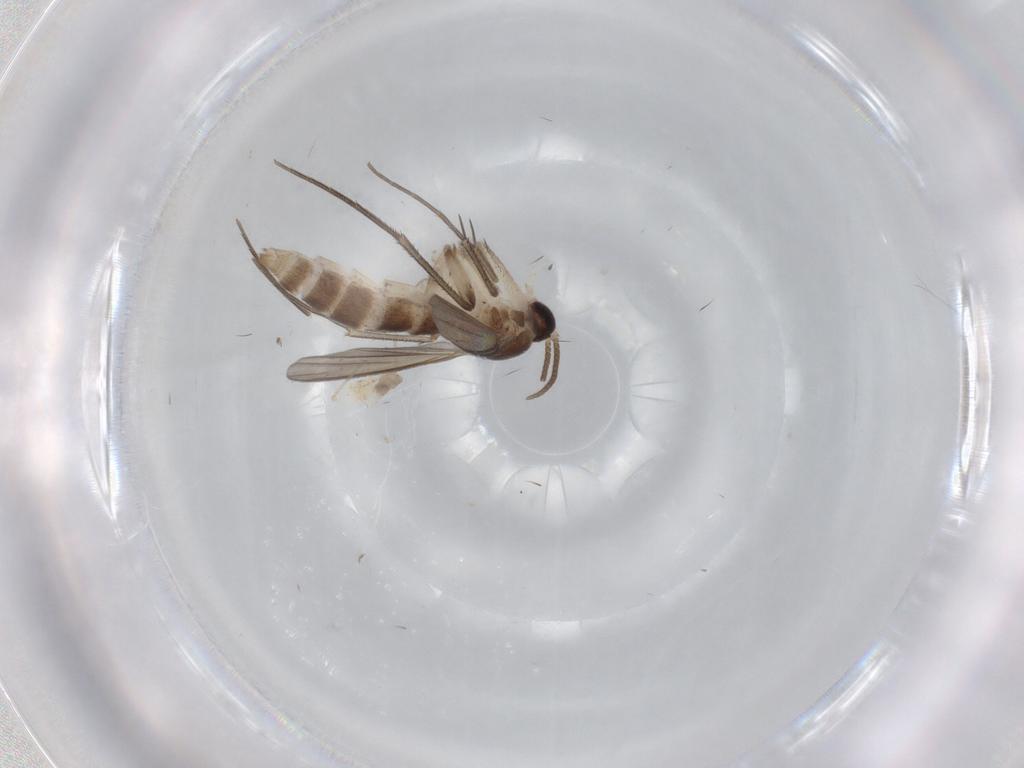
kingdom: Animalia
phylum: Arthropoda
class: Insecta
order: Diptera
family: Mycetophilidae
